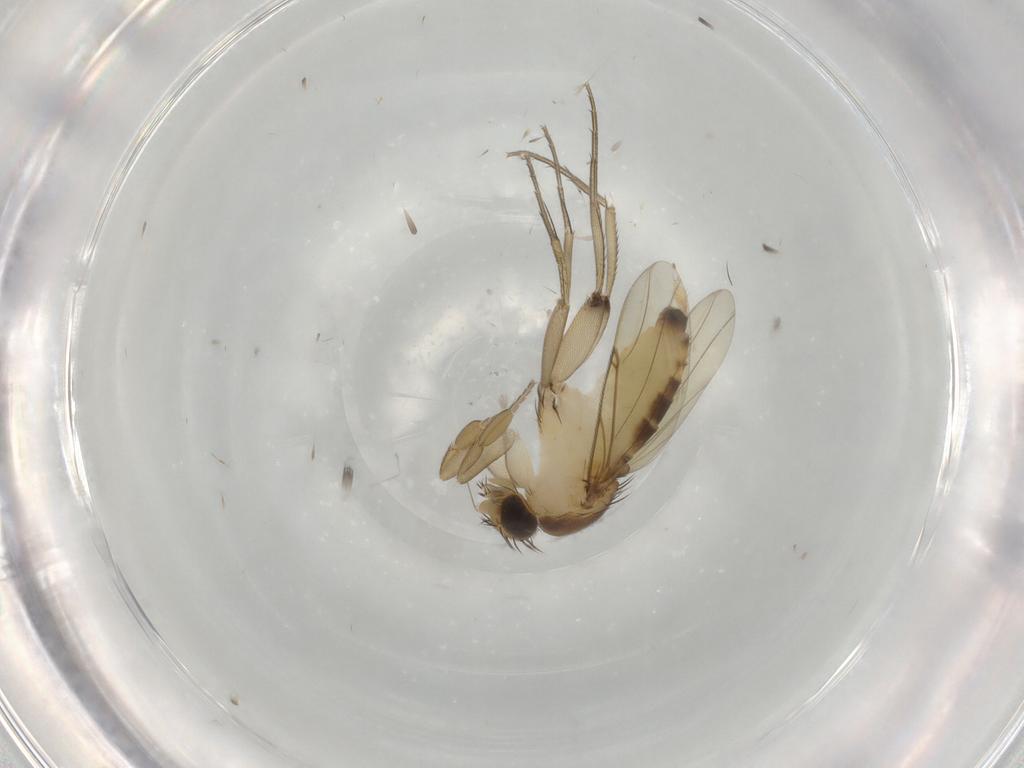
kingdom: Animalia
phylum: Arthropoda
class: Insecta
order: Diptera
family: Phoridae
